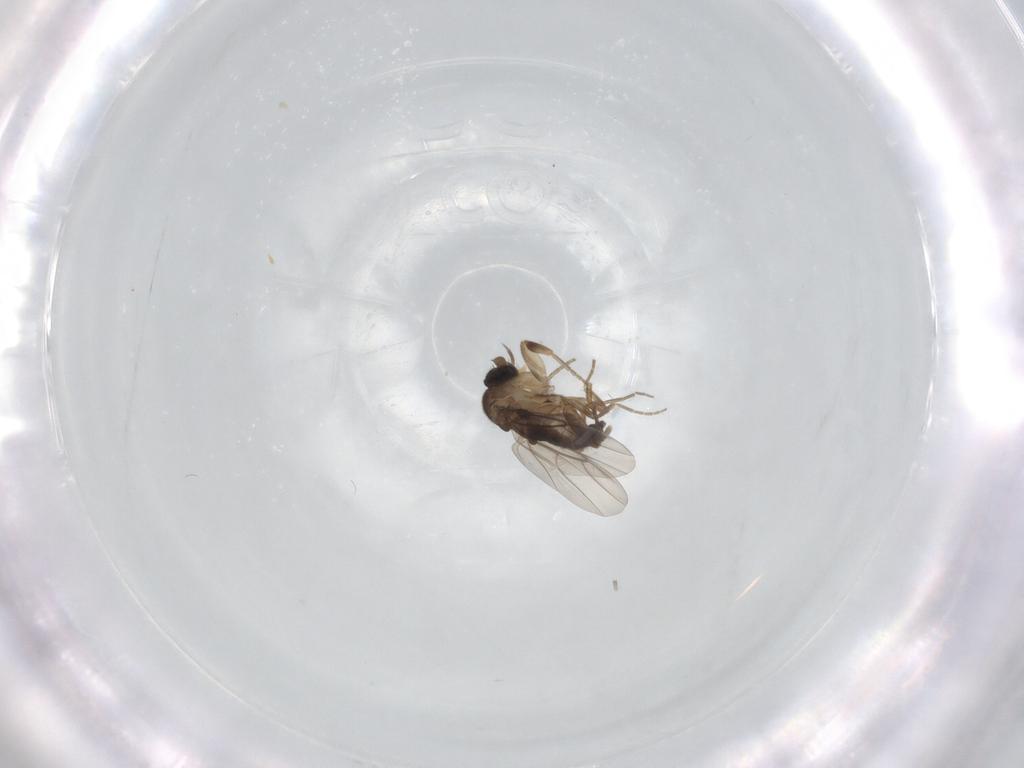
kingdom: Animalia
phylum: Arthropoda
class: Insecta
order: Diptera
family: Phoridae
